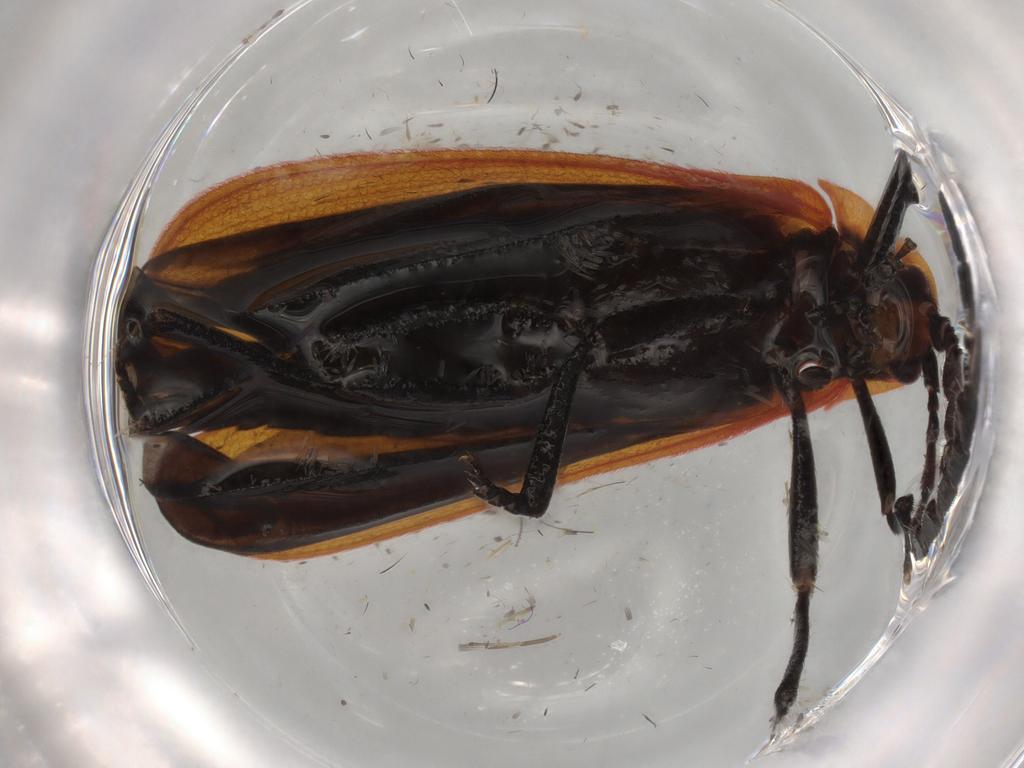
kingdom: Animalia
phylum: Arthropoda
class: Insecta
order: Coleoptera
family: Lycidae
